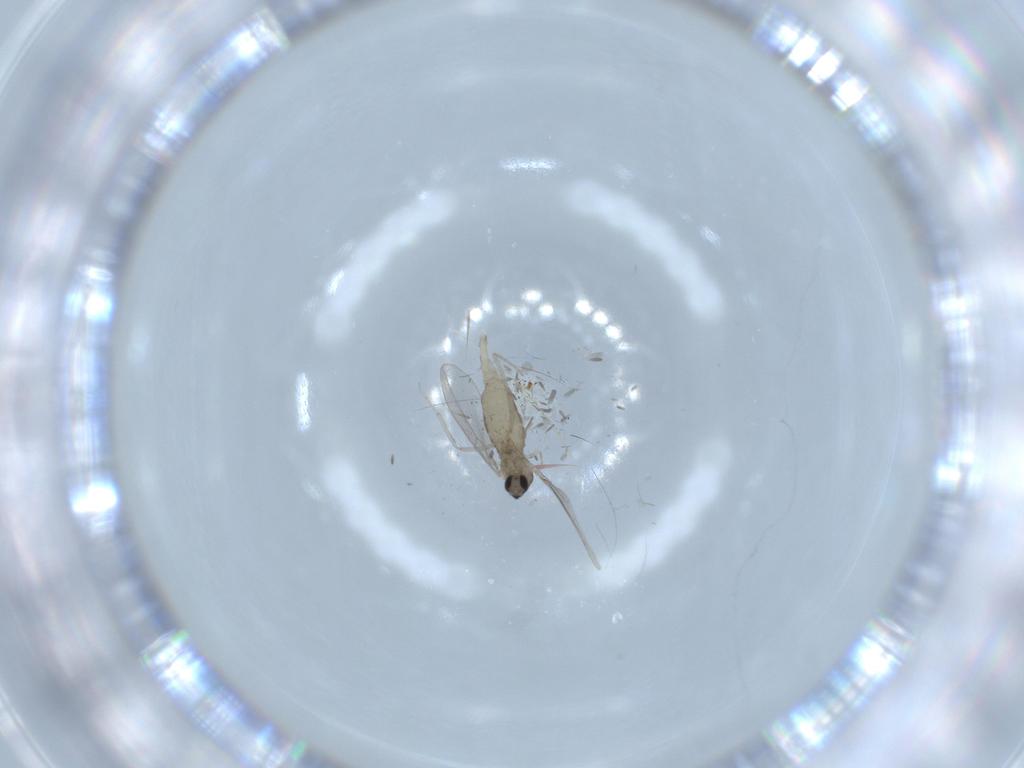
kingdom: Animalia
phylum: Arthropoda
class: Insecta
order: Diptera
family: Cecidomyiidae
